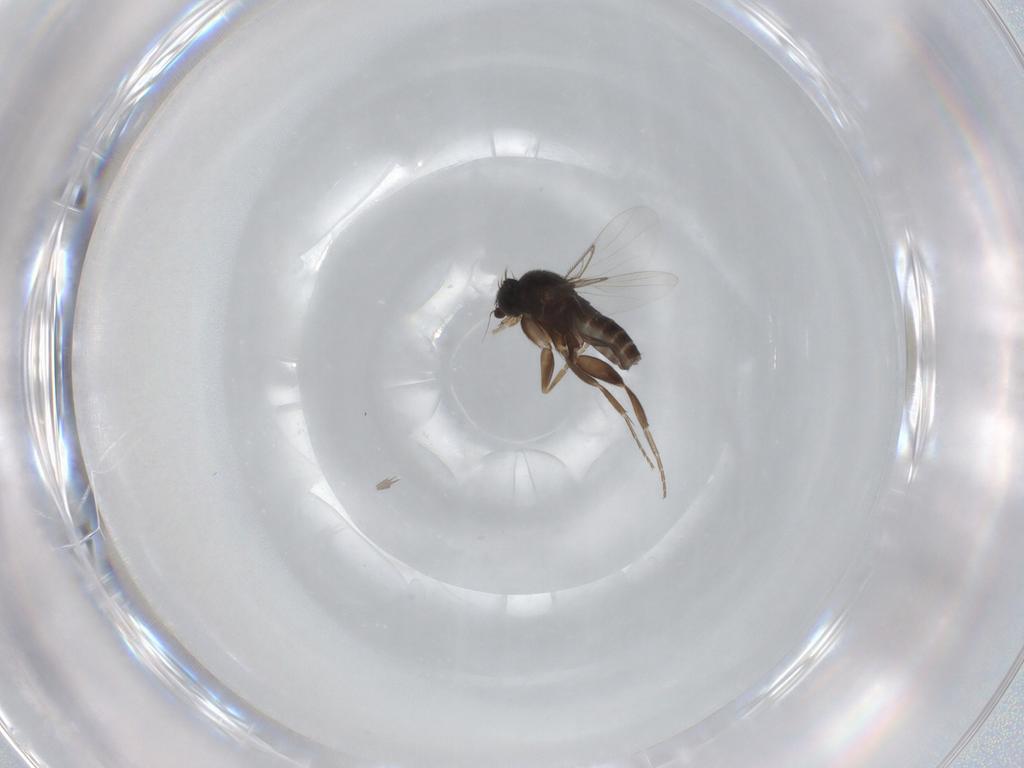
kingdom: Animalia
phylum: Arthropoda
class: Insecta
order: Diptera
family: Phoridae
